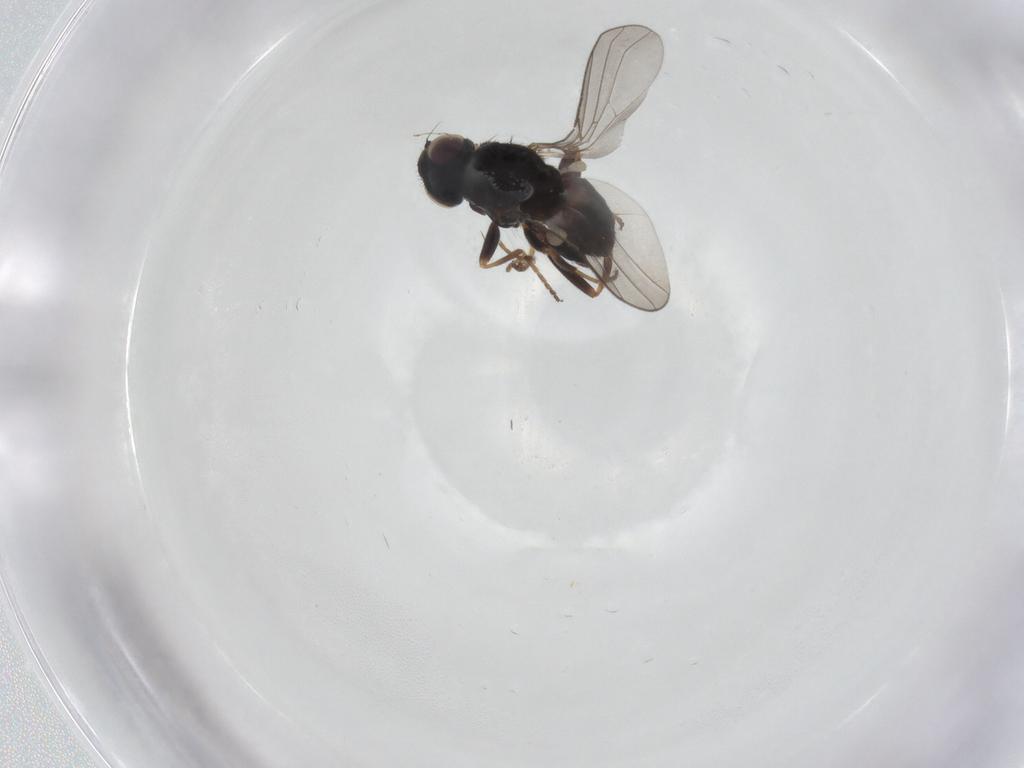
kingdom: Animalia
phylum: Arthropoda
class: Insecta
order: Diptera
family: Chloropidae
